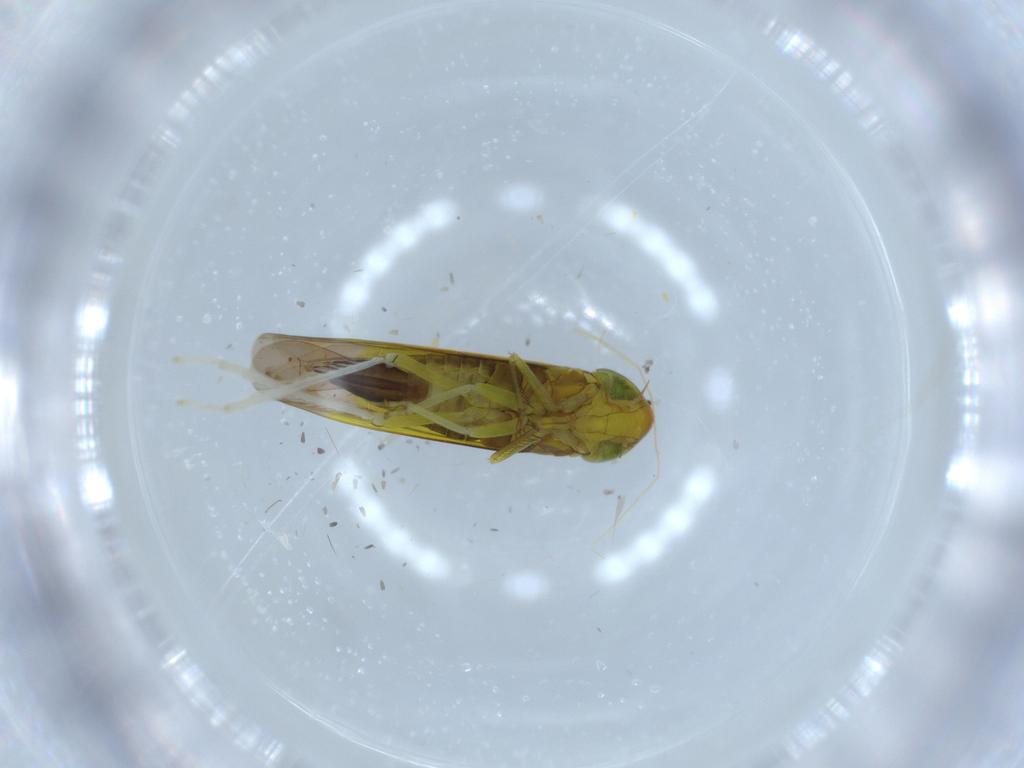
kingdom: Animalia
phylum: Arthropoda
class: Insecta
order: Hemiptera
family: Cicadellidae
